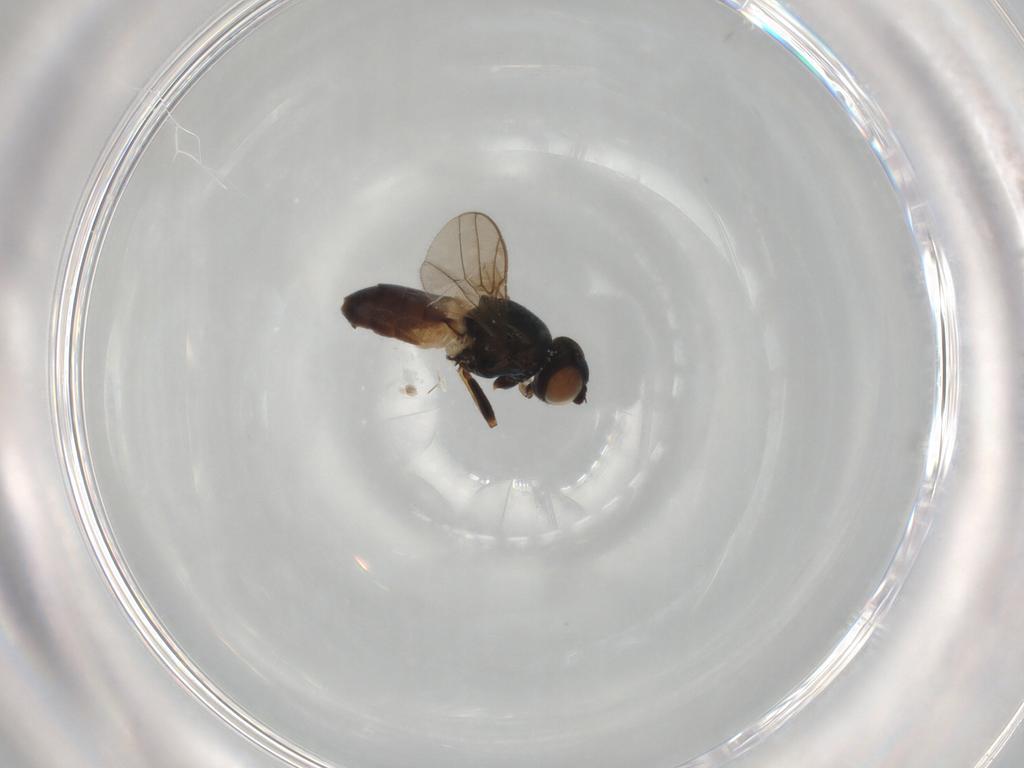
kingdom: Animalia
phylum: Arthropoda
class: Insecta
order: Diptera
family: Chloropidae
